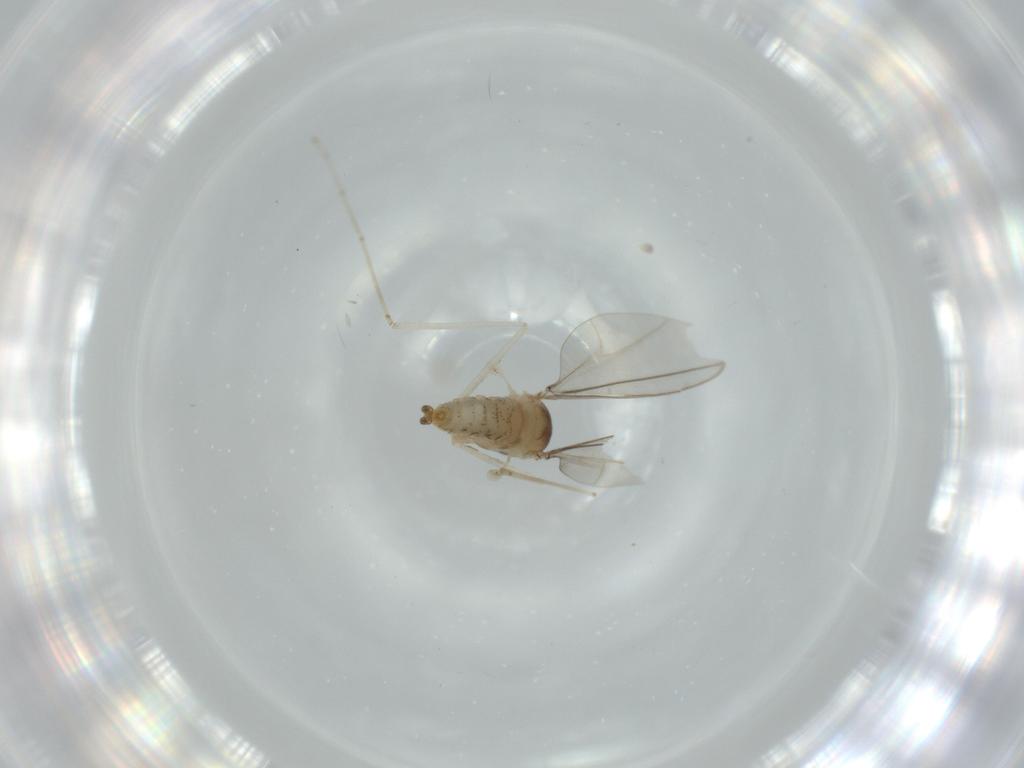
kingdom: Animalia
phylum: Arthropoda
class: Insecta
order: Diptera
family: Cecidomyiidae
